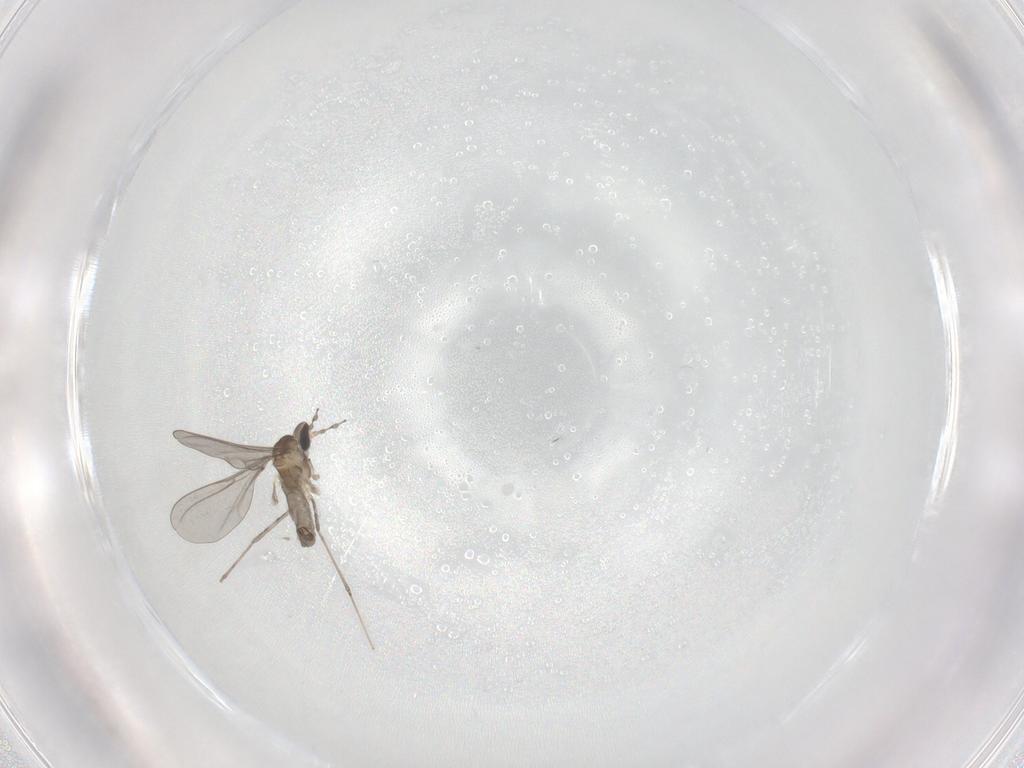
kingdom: Animalia
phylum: Arthropoda
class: Insecta
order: Diptera
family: Cecidomyiidae
